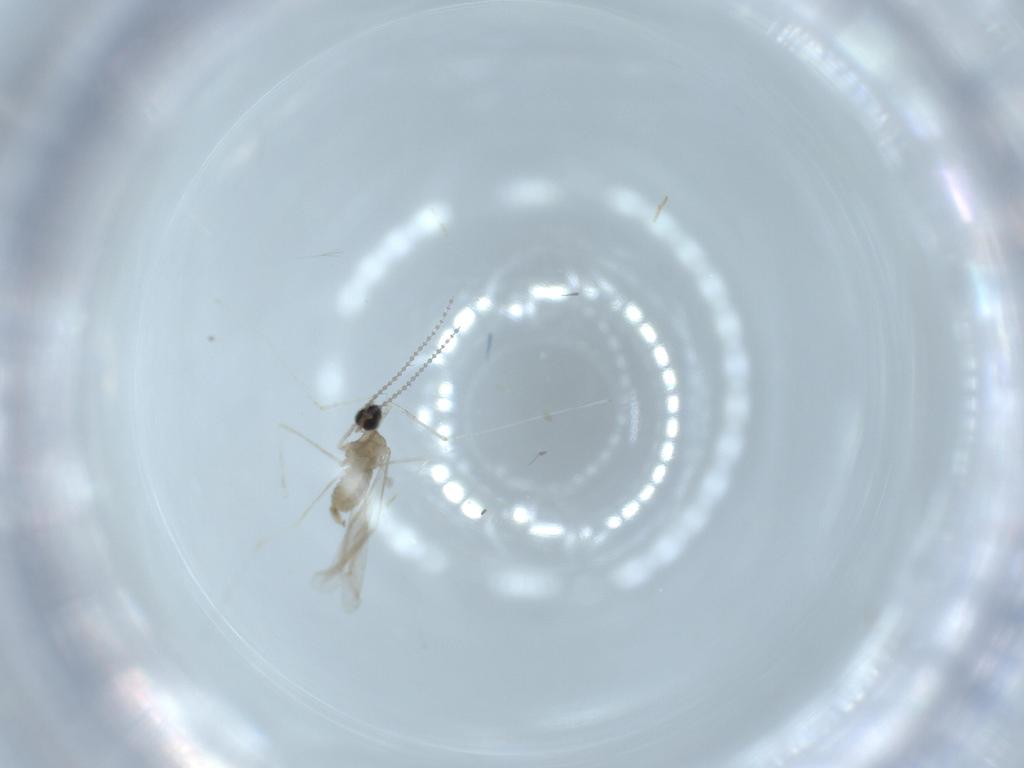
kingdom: Animalia
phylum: Arthropoda
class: Insecta
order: Diptera
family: Cecidomyiidae
